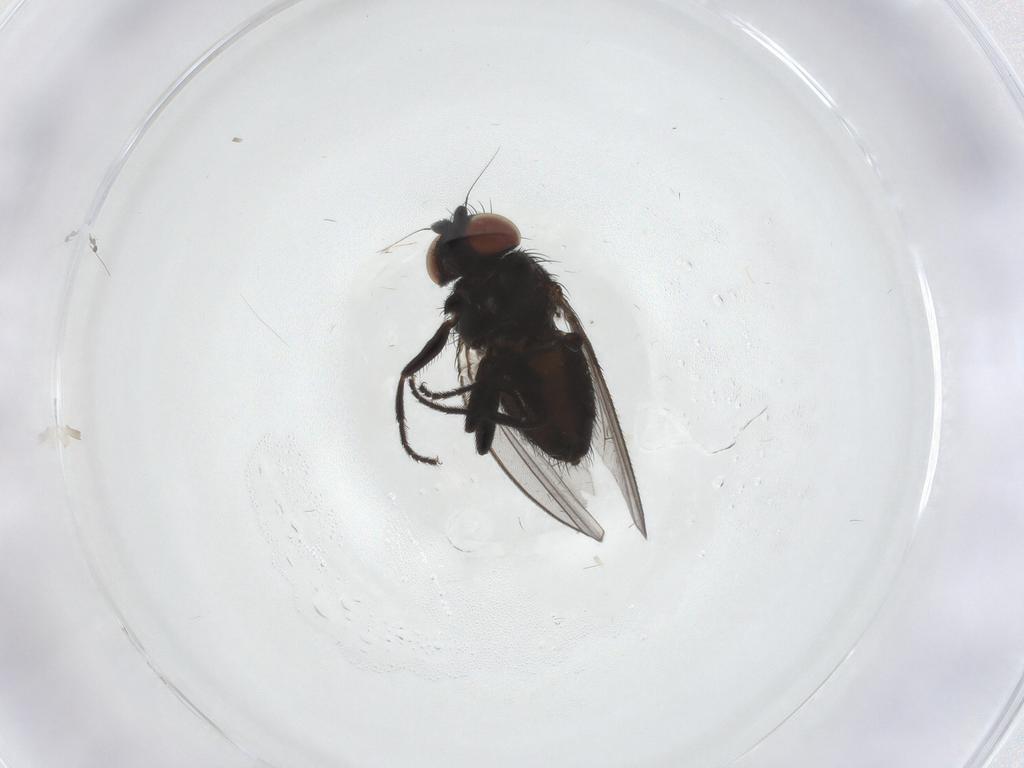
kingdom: Animalia
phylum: Arthropoda
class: Insecta
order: Diptera
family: Milichiidae
